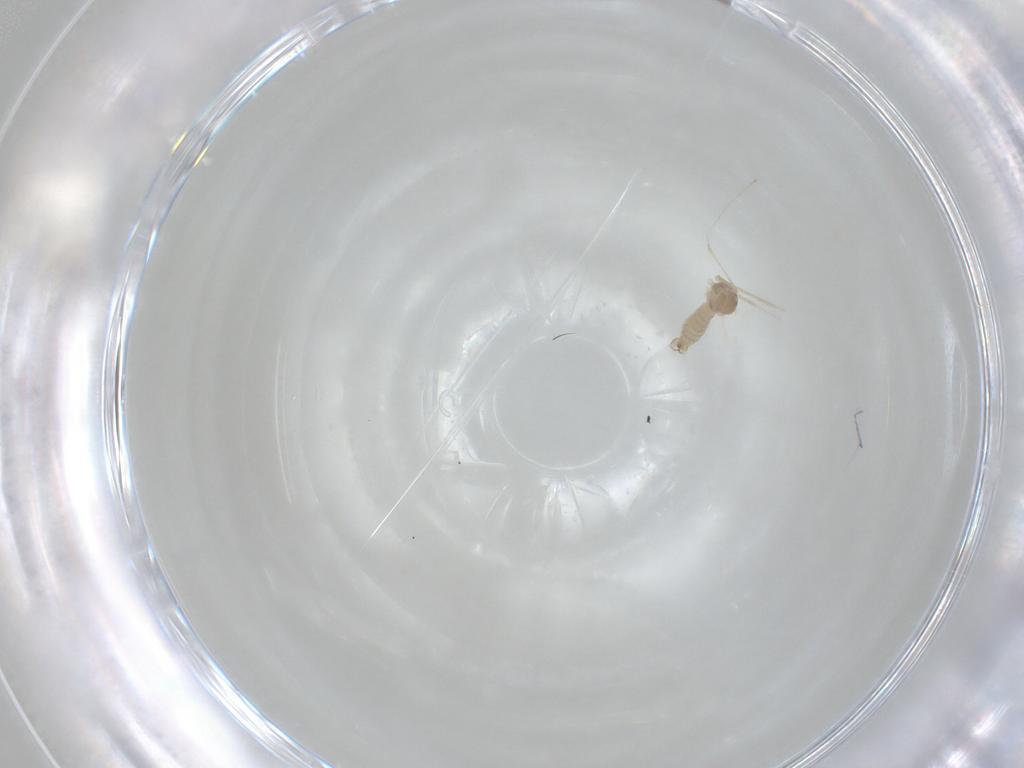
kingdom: Animalia
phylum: Arthropoda
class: Insecta
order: Diptera
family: Cecidomyiidae
